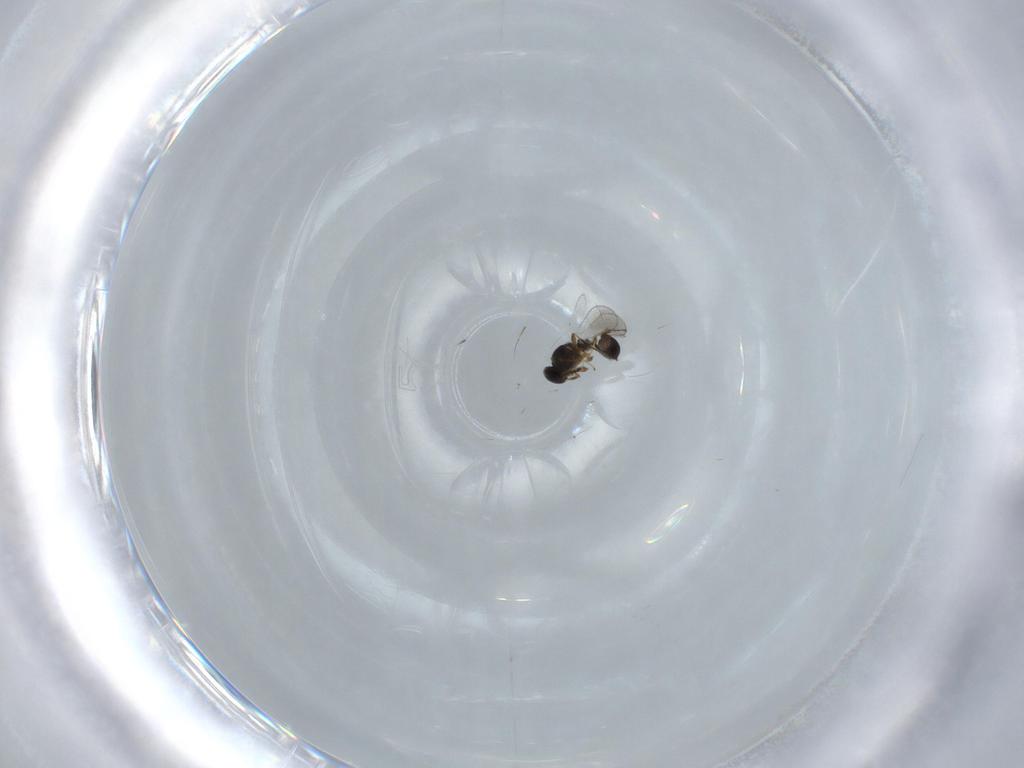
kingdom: Animalia
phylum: Arthropoda
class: Insecta
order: Hymenoptera
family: Platygastridae
